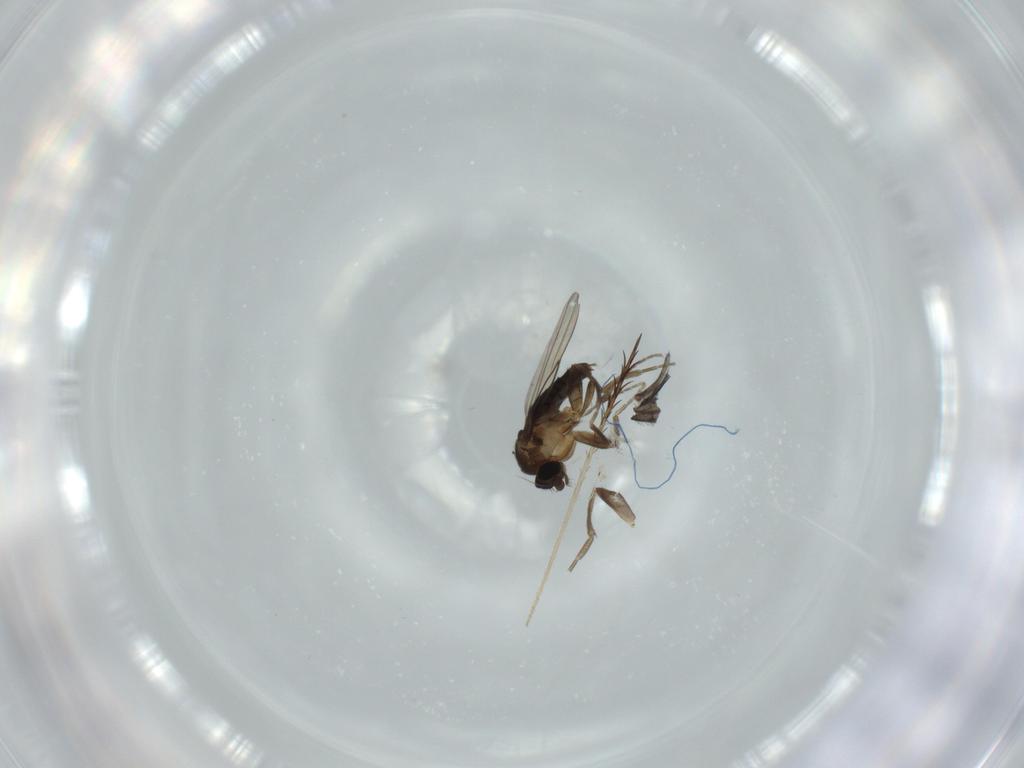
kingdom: Animalia
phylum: Arthropoda
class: Insecta
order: Diptera
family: Phoridae
